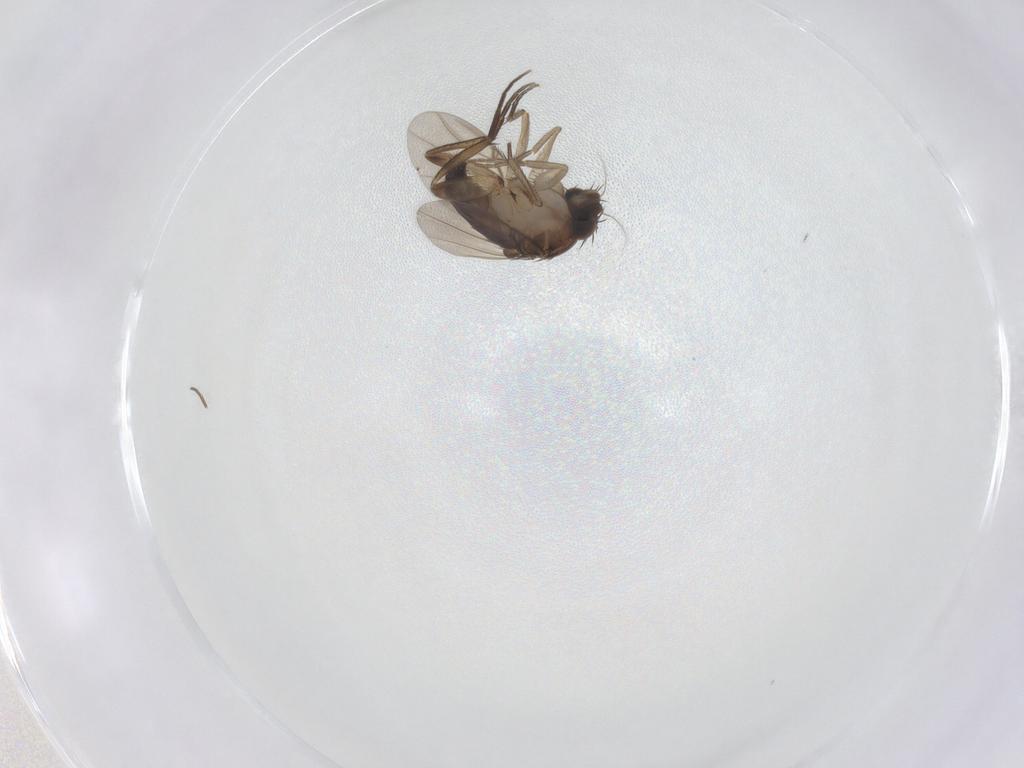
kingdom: Animalia
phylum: Arthropoda
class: Insecta
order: Diptera
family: Phoridae
